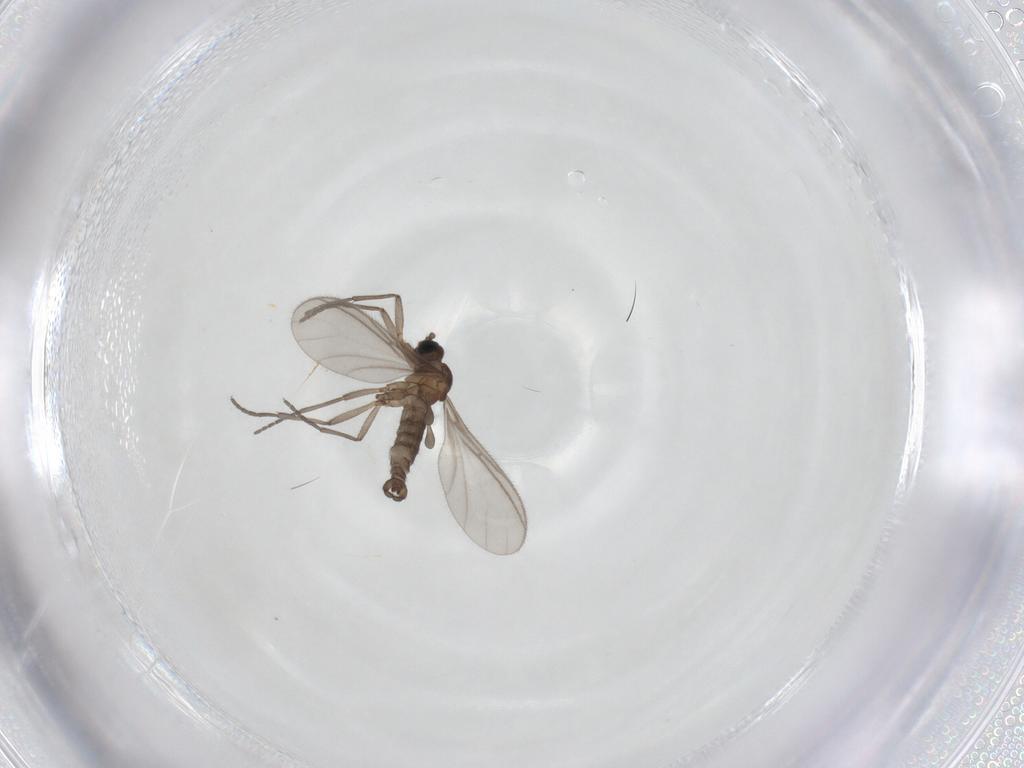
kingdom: Animalia
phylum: Arthropoda
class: Insecta
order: Diptera
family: Sciaridae
